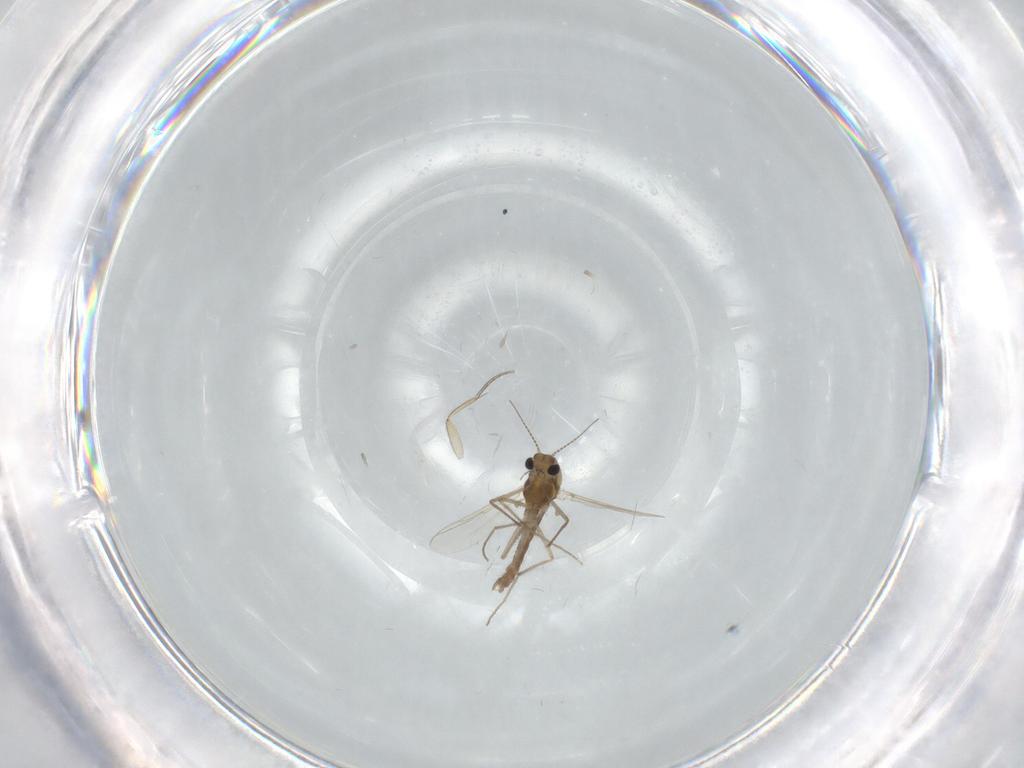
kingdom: Animalia
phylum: Arthropoda
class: Insecta
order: Diptera
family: Chironomidae
